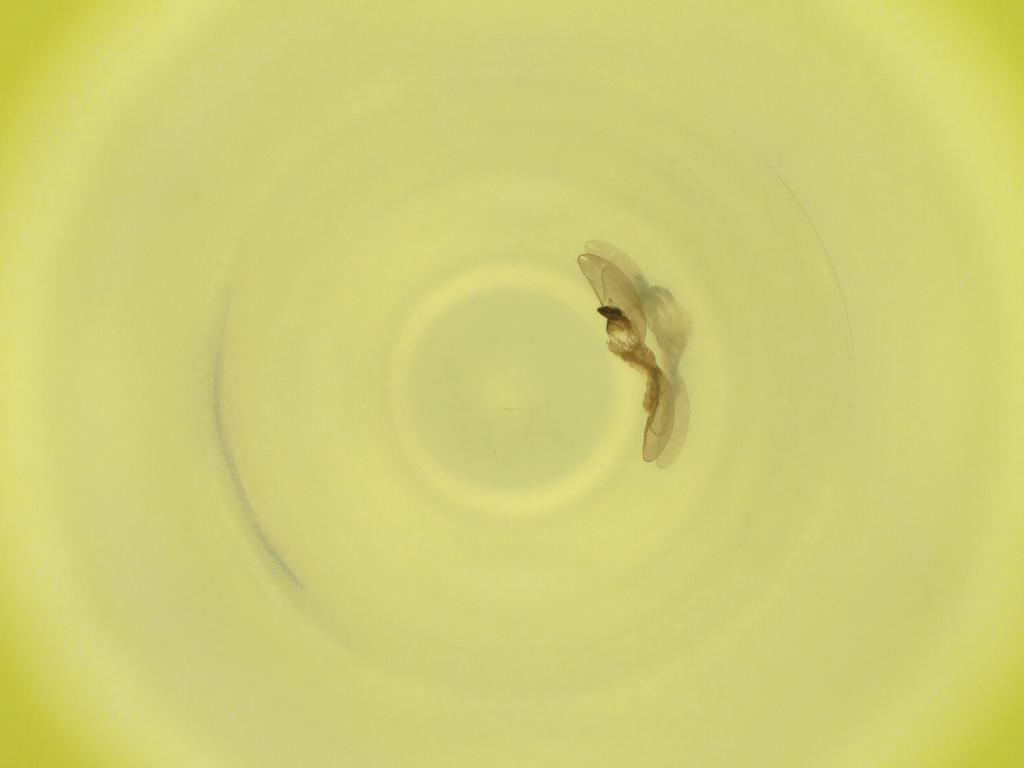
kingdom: Animalia
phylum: Arthropoda
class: Insecta
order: Diptera
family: Cecidomyiidae
